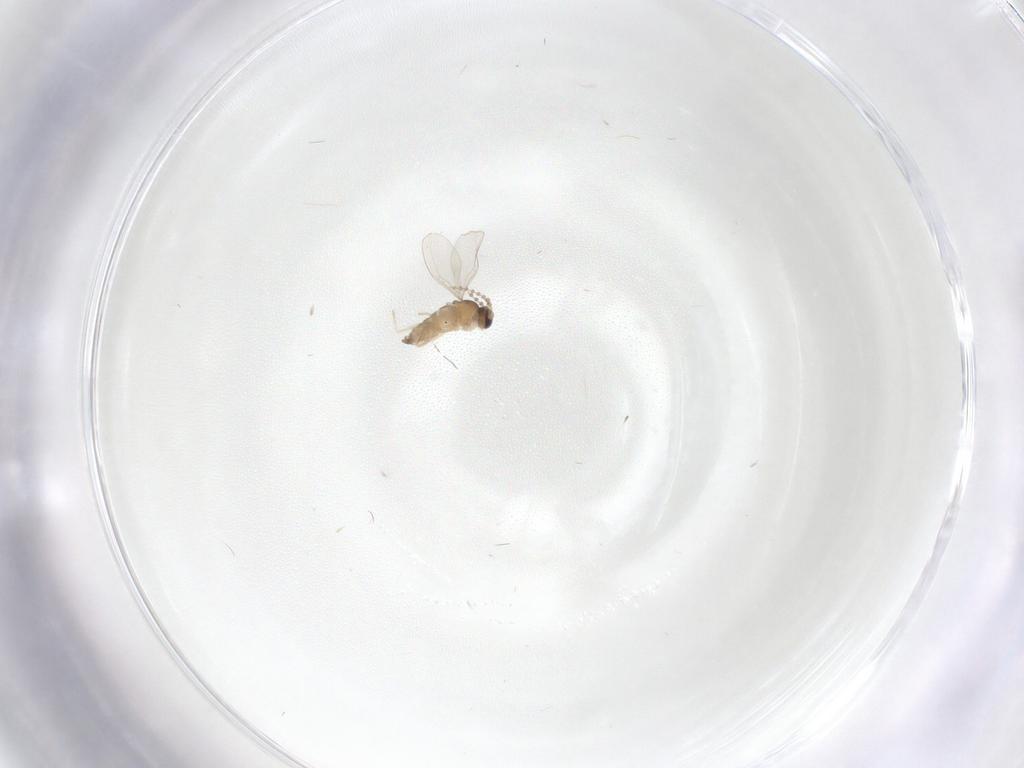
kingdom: Animalia
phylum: Arthropoda
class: Insecta
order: Diptera
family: Cecidomyiidae
